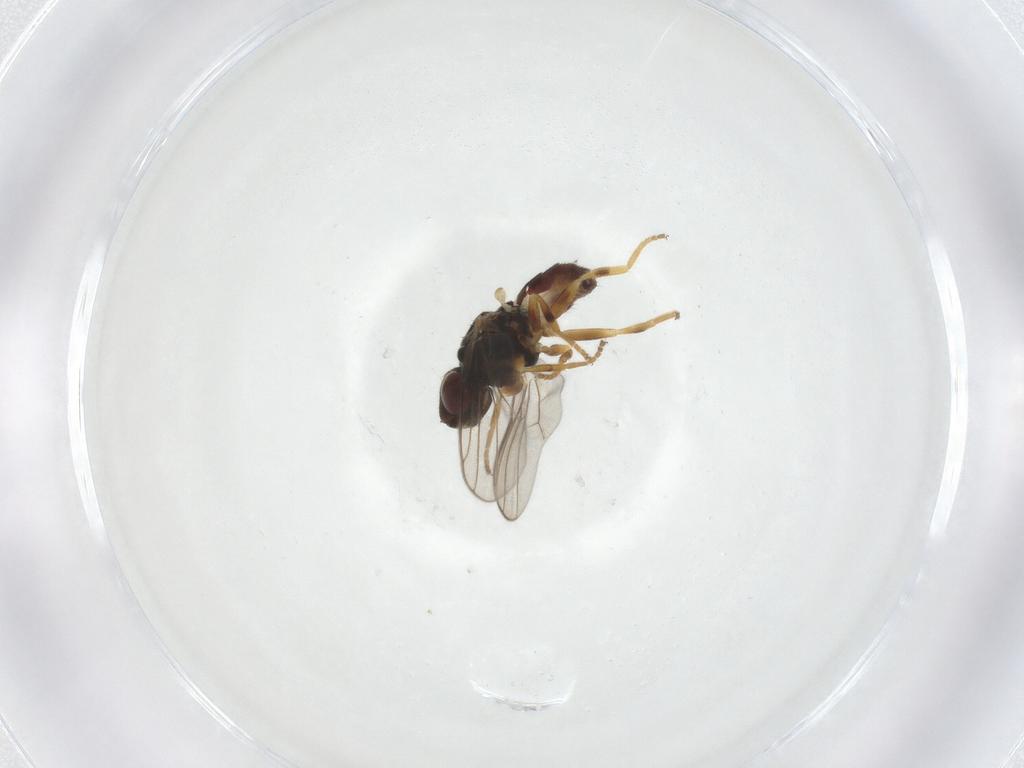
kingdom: Animalia
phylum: Arthropoda
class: Insecta
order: Diptera
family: Chloropidae
